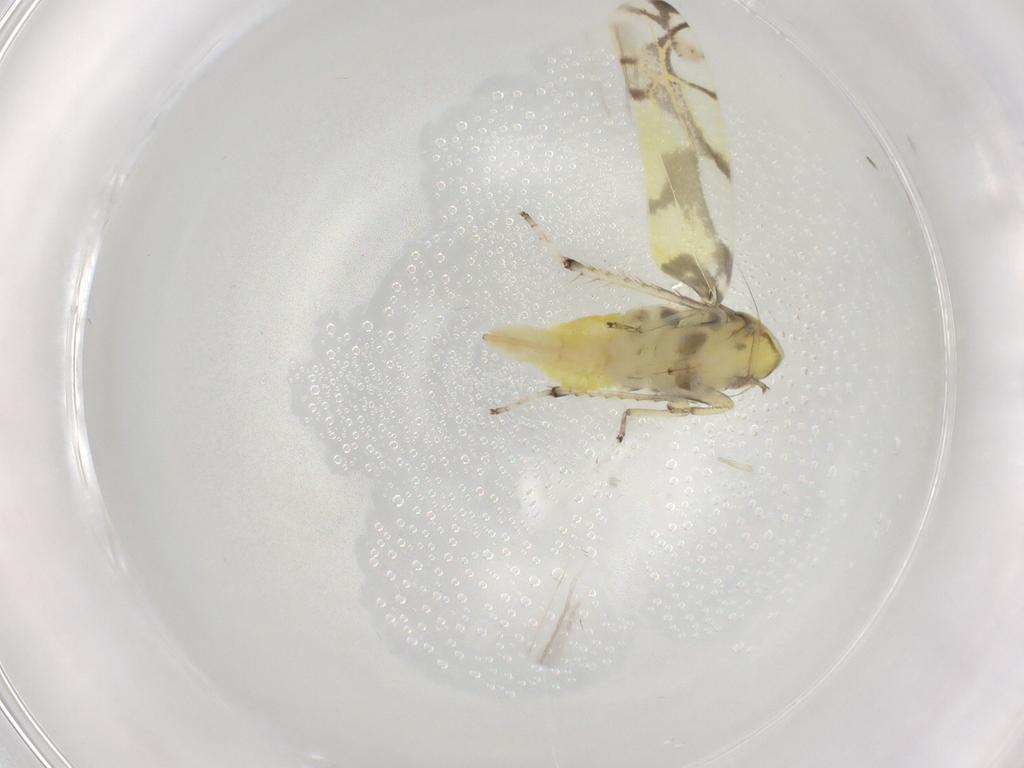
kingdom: Animalia
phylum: Arthropoda
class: Insecta
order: Hemiptera
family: Cicadellidae
